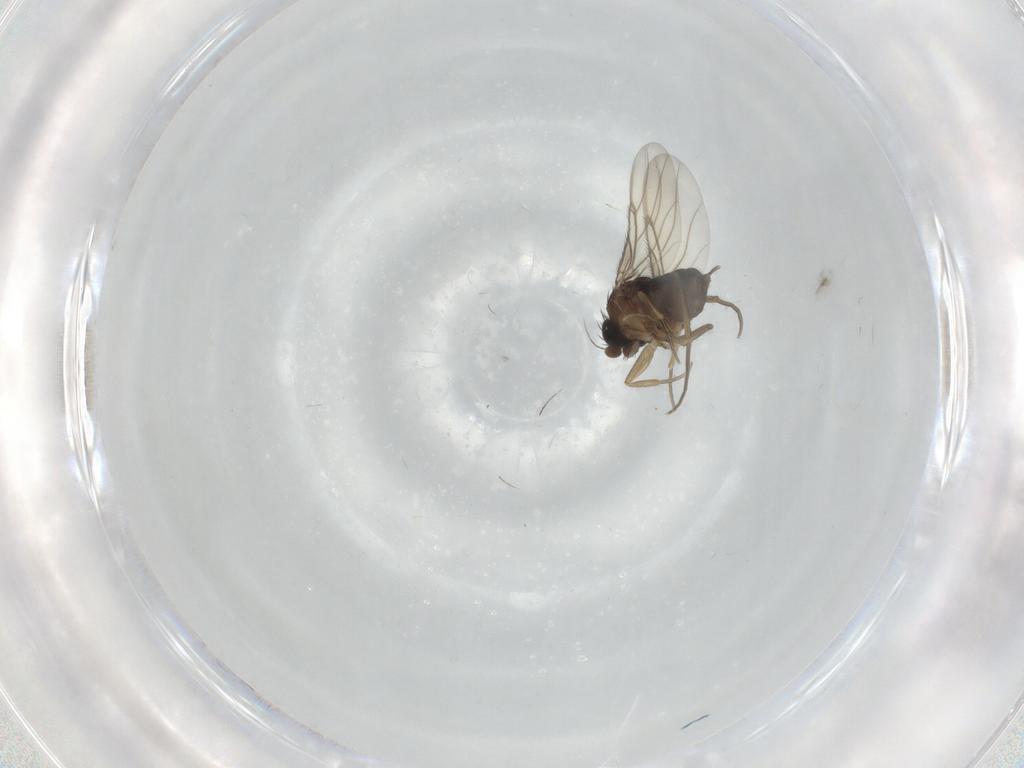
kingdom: Animalia
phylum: Arthropoda
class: Insecta
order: Diptera
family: Phoridae
